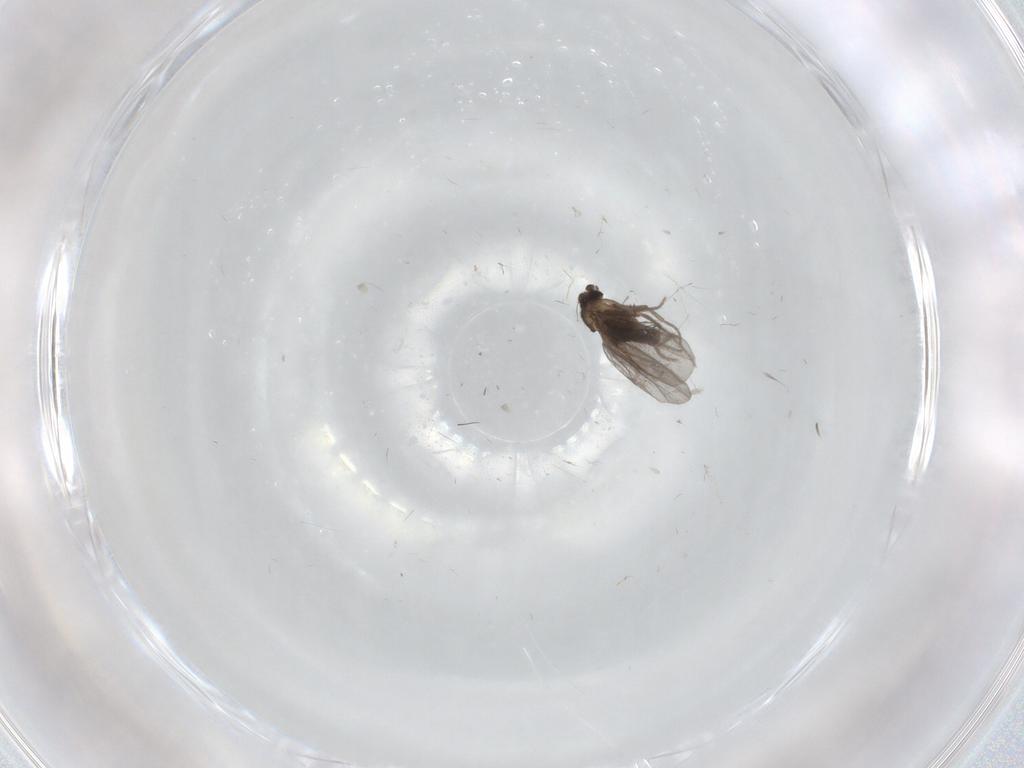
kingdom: Animalia
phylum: Arthropoda
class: Insecta
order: Diptera
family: Phoridae
